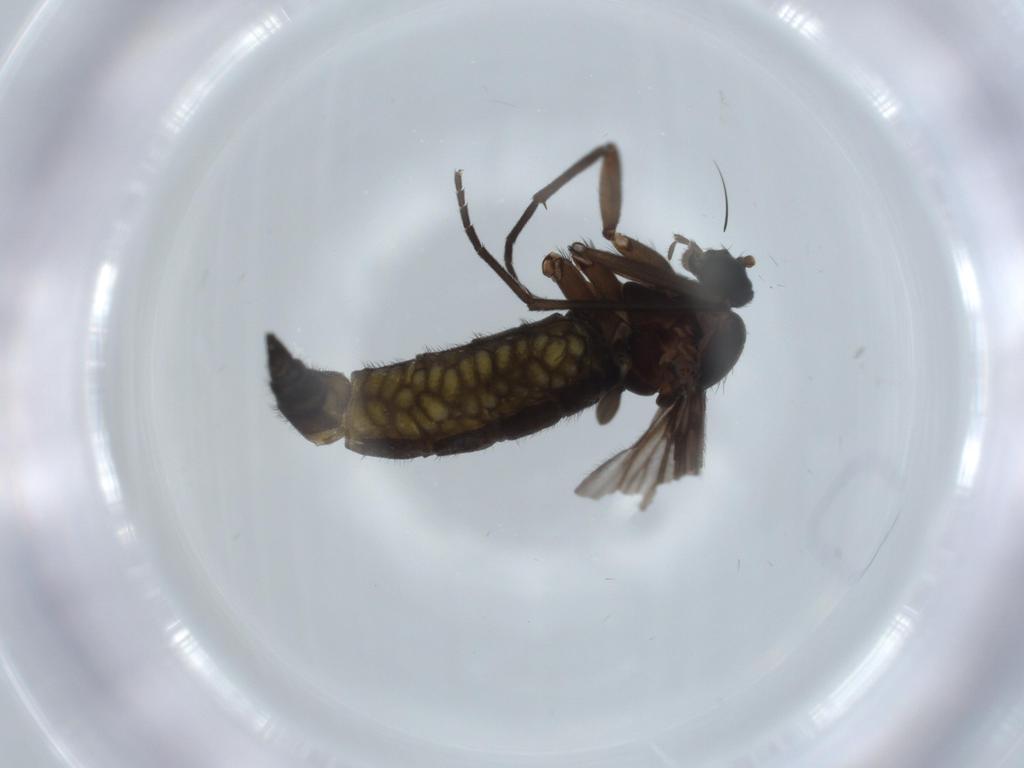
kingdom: Animalia
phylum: Arthropoda
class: Insecta
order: Diptera
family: Sciaridae
